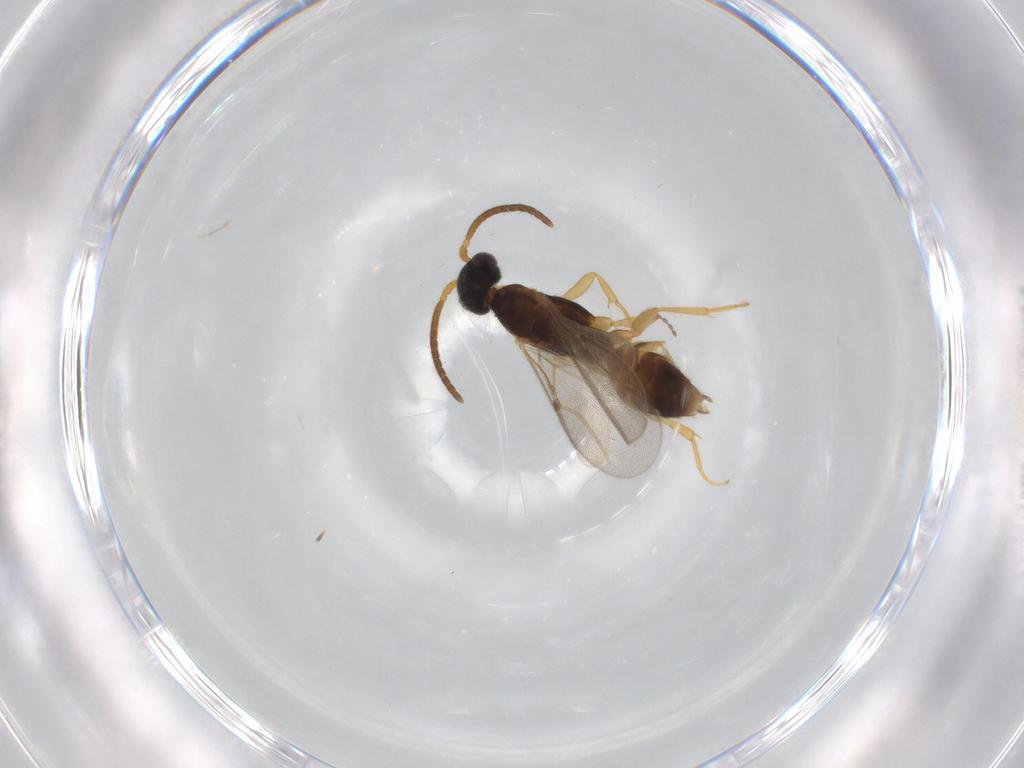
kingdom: Animalia
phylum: Arthropoda
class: Insecta
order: Hymenoptera
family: Bethylidae
